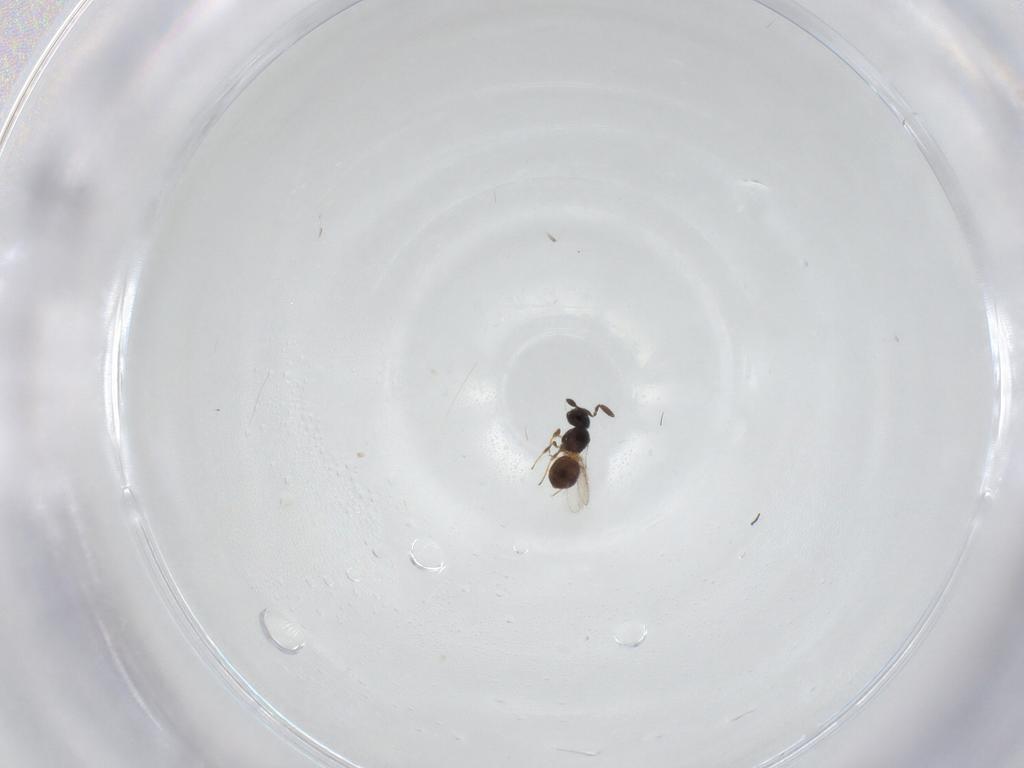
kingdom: Animalia
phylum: Arthropoda
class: Insecta
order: Hymenoptera
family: Scelionidae
